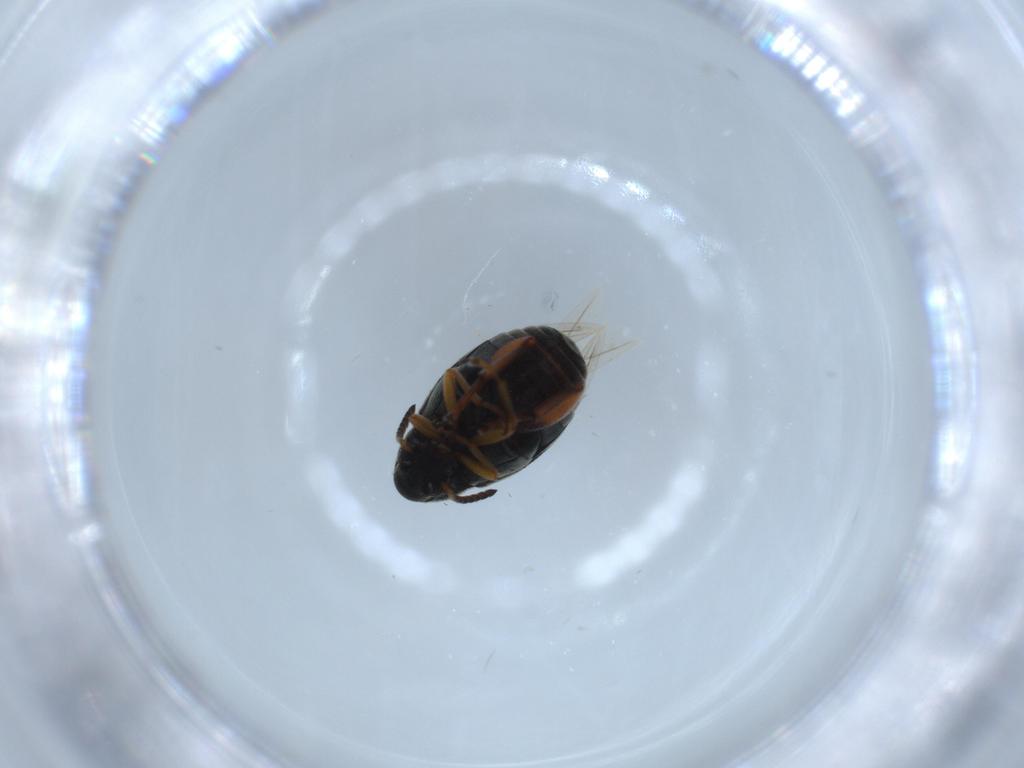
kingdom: Animalia
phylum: Arthropoda
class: Insecta
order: Coleoptera
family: Chrysomelidae
